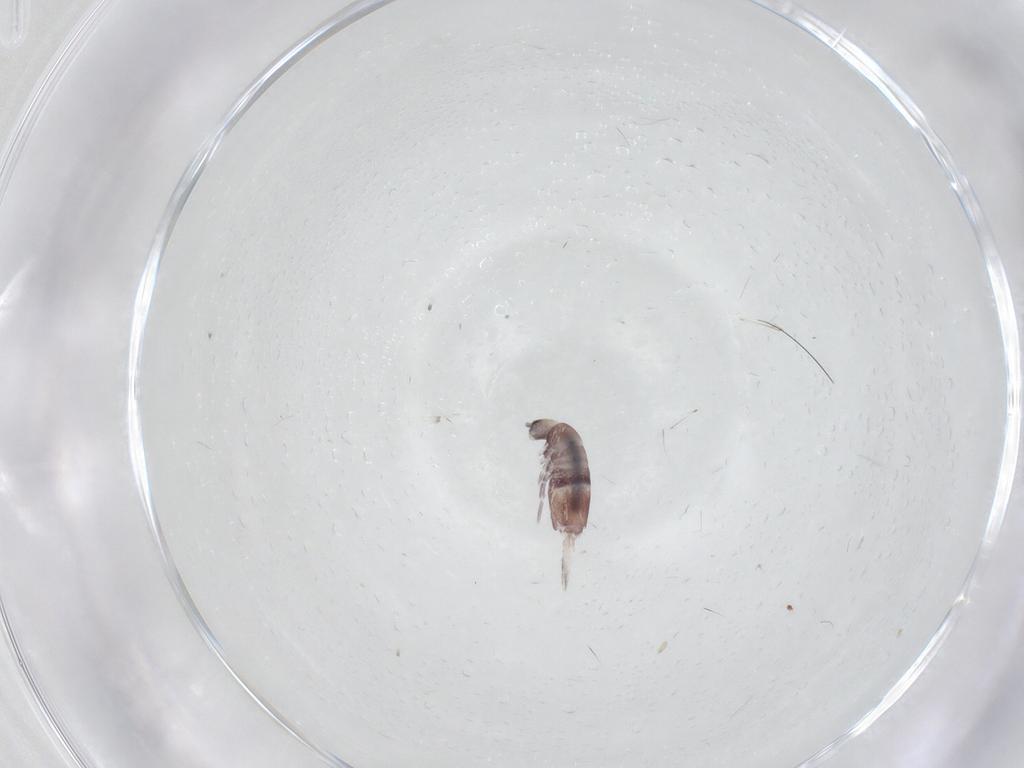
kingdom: Animalia
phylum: Arthropoda
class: Collembola
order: Entomobryomorpha
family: Entomobryidae
